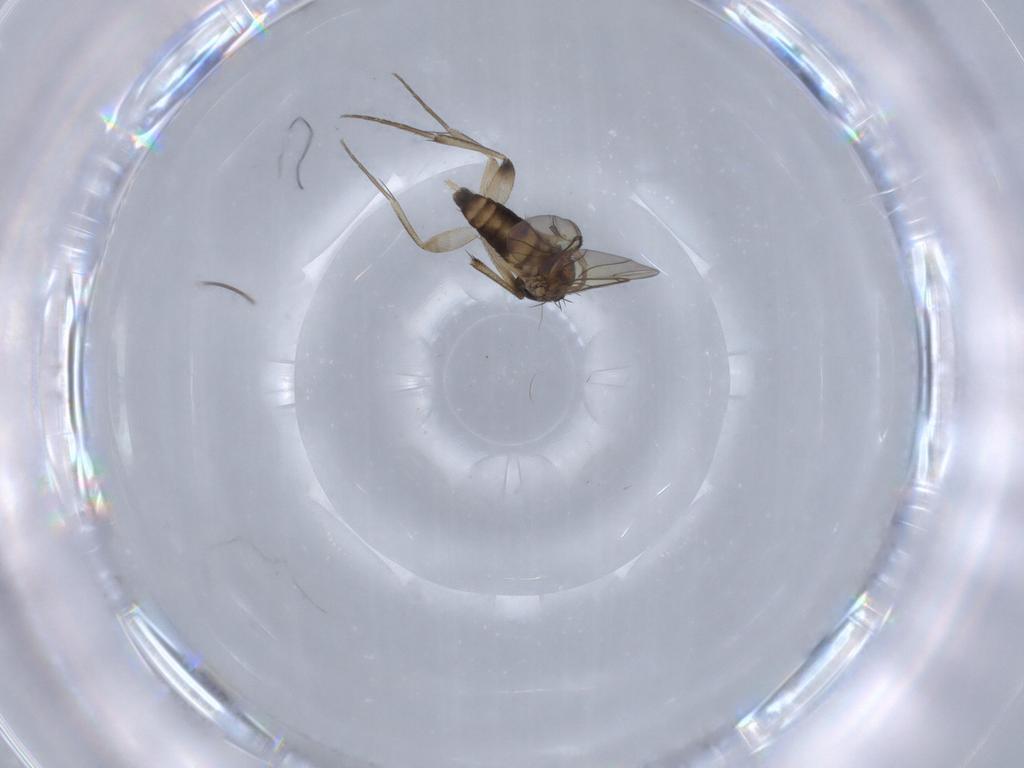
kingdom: Animalia
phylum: Arthropoda
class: Insecta
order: Diptera
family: Phoridae
